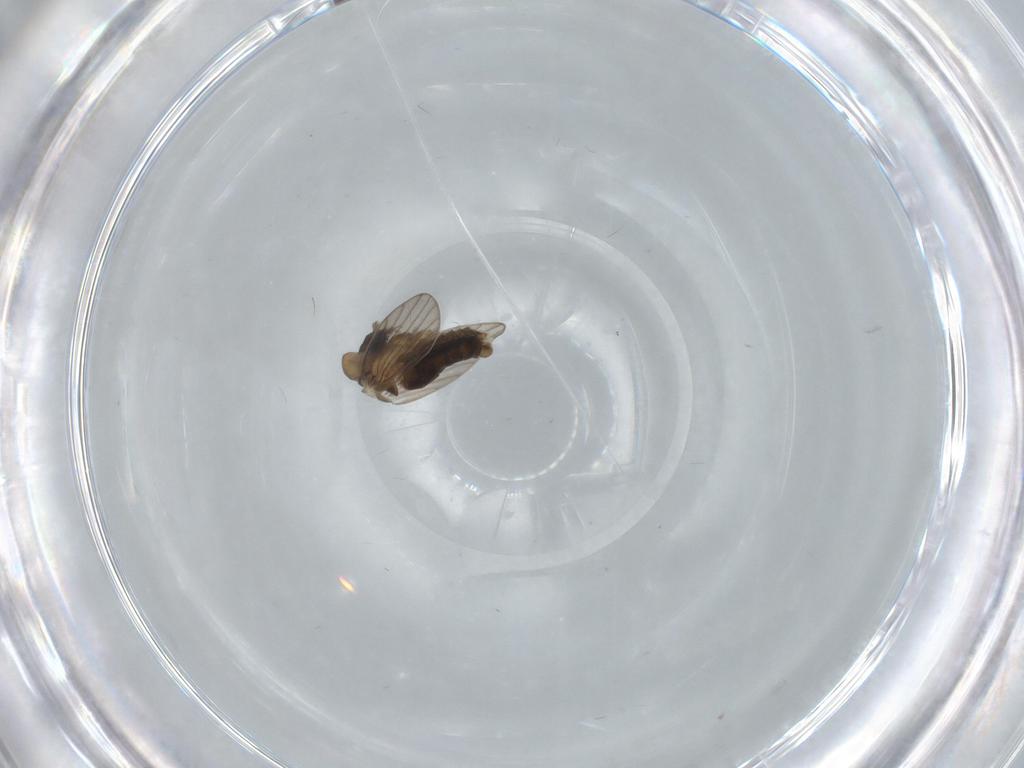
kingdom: Animalia
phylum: Arthropoda
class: Insecta
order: Diptera
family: Psychodidae
